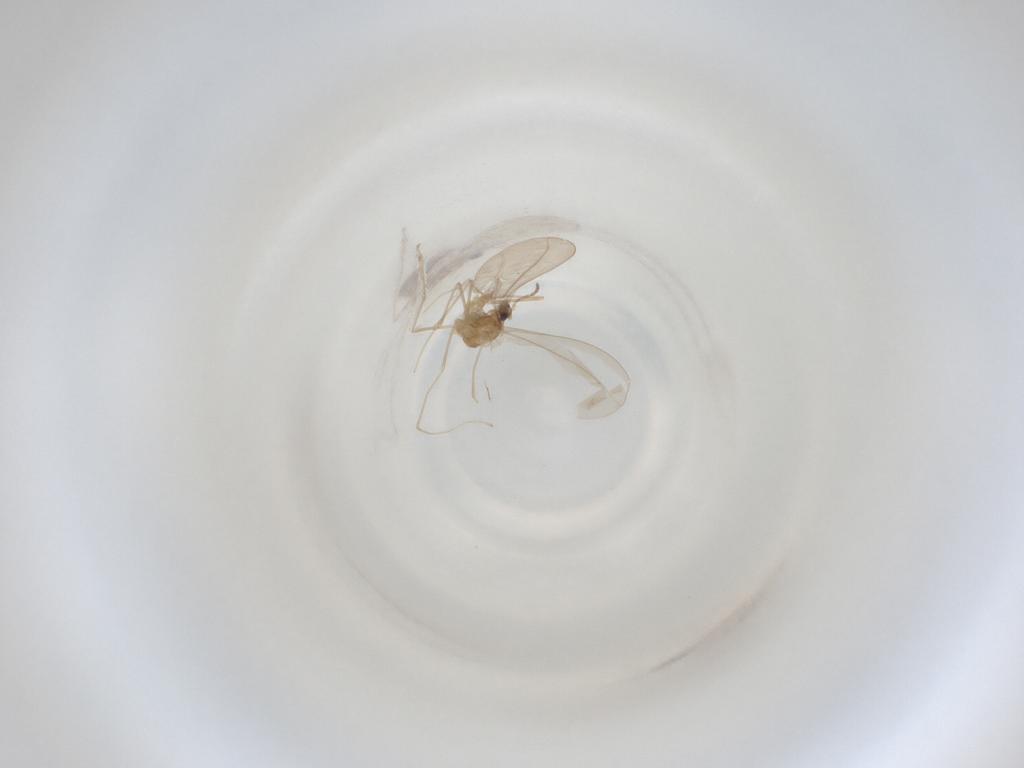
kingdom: Animalia
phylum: Arthropoda
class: Insecta
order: Diptera
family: Cecidomyiidae
